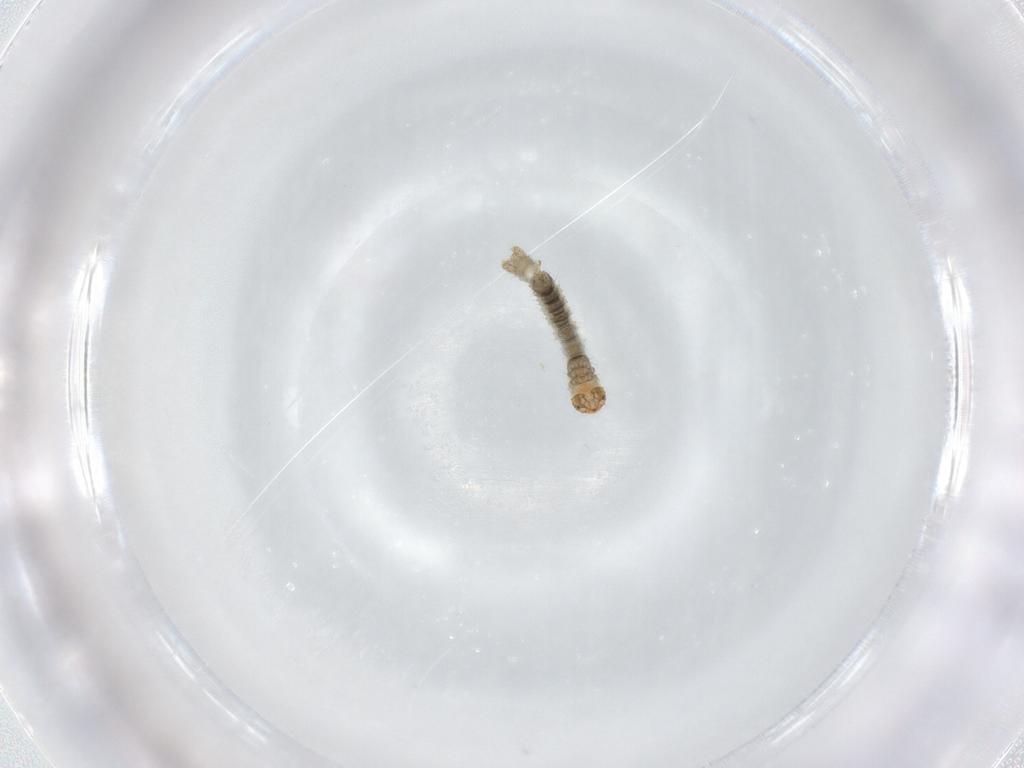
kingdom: Animalia
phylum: Arthropoda
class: Insecta
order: Lepidoptera
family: Geometridae
